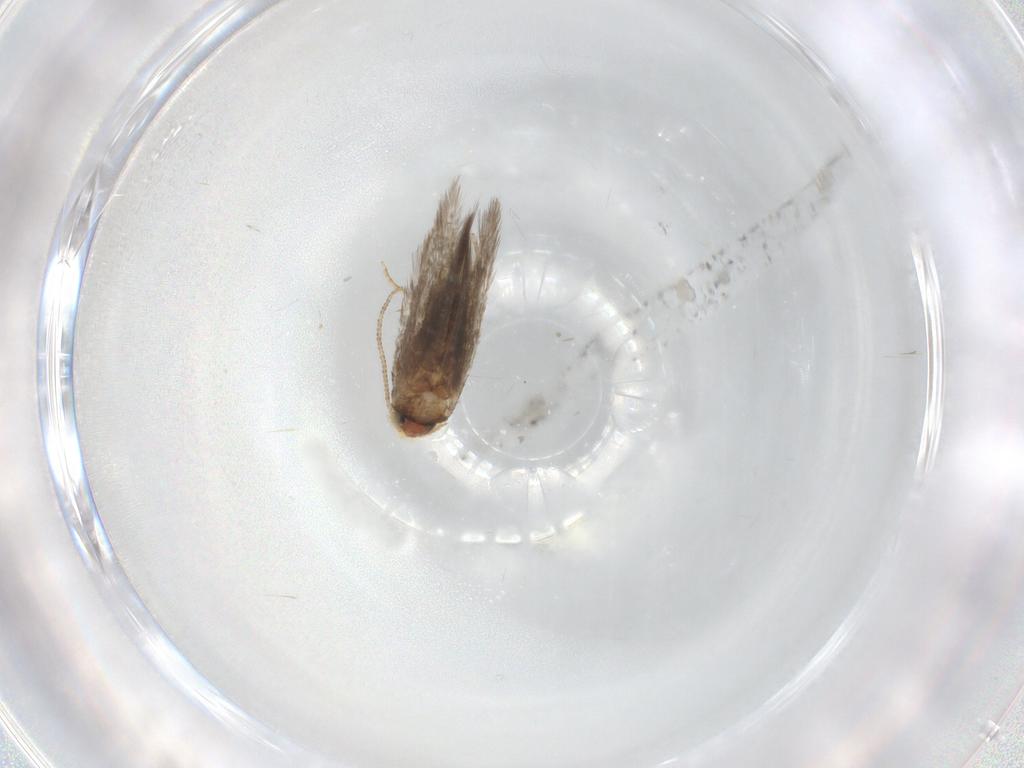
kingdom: Animalia
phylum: Arthropoda
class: Insecta
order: Lepidoptera
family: Nepticulidae
